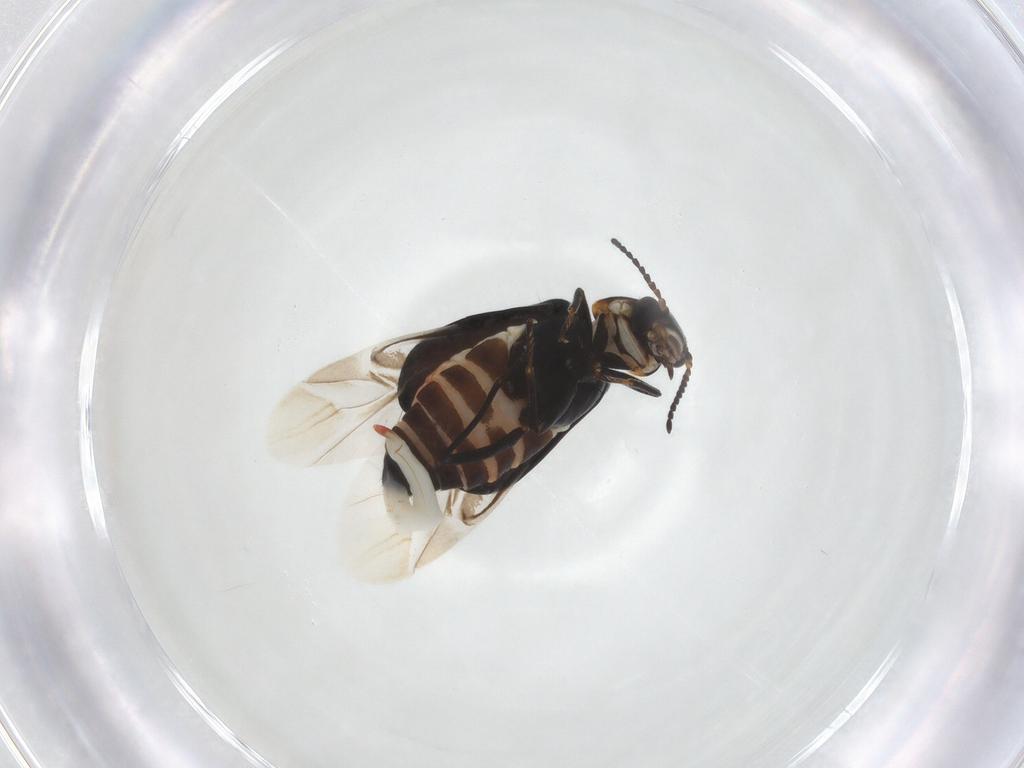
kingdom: Animalia
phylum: Arthropoda
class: Insecta
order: Coleoptera
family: Melyridae
